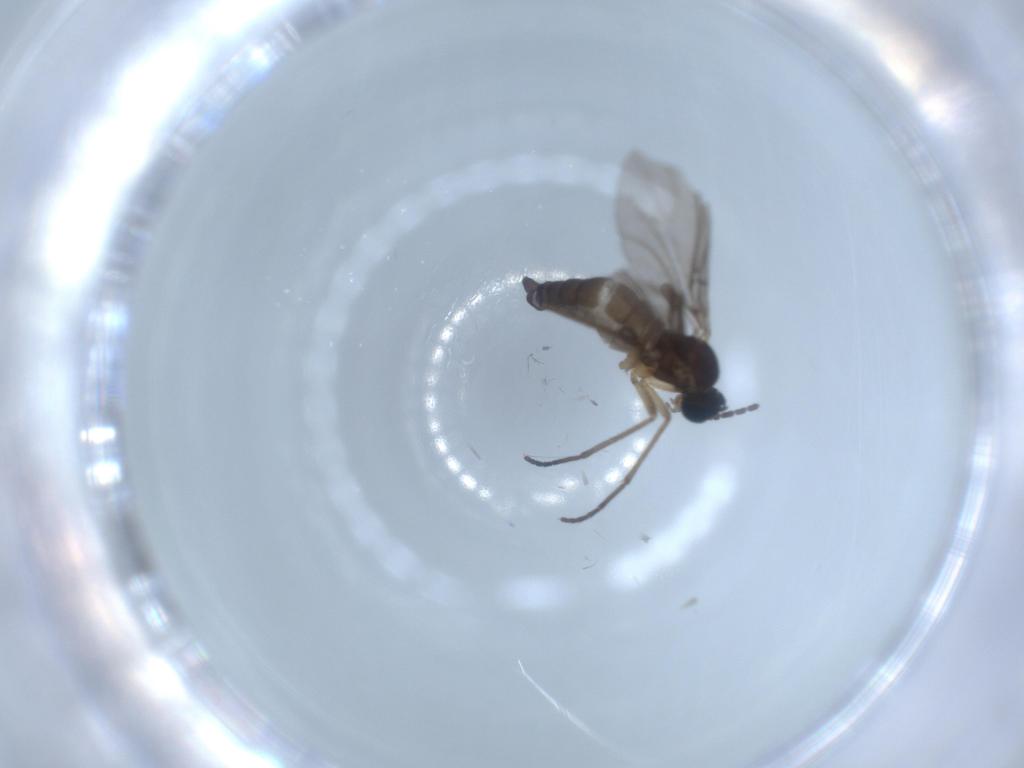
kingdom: Animalia
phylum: Arthropoda
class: Insecta
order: Diptera
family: Sciaridae
